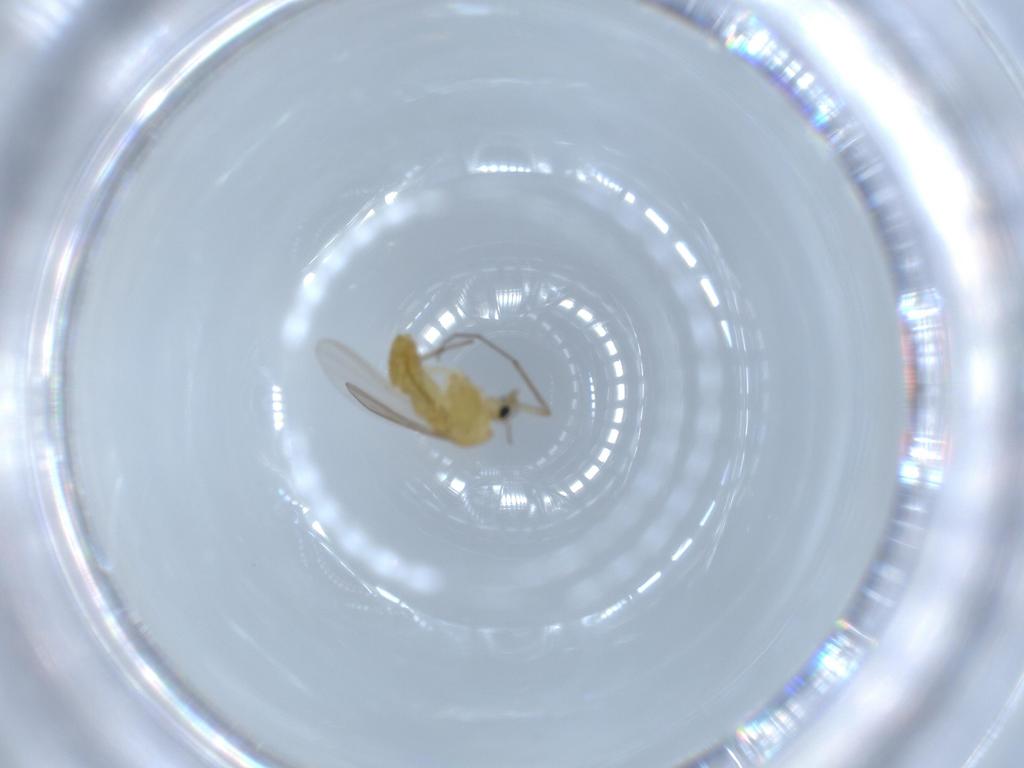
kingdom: Animalia
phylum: Arthropoda
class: Insecta
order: Diptera
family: Chironomidae
